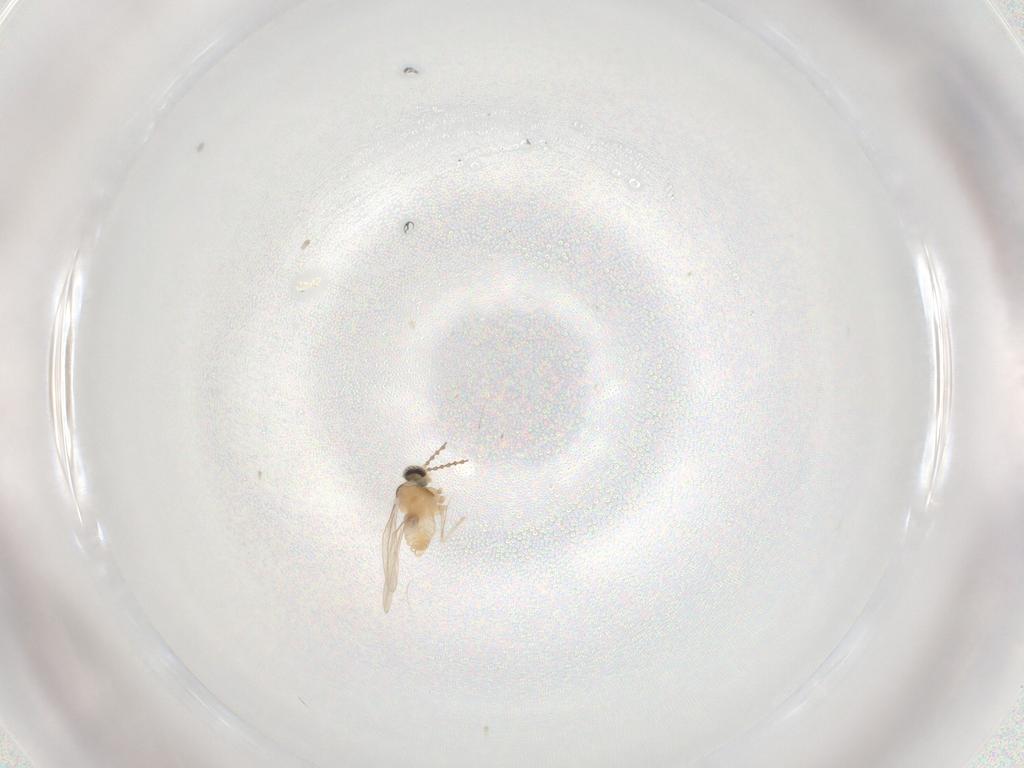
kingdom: Animalia
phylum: Arthropoda
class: Insecta
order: Diptera
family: Cecidomyiidae
